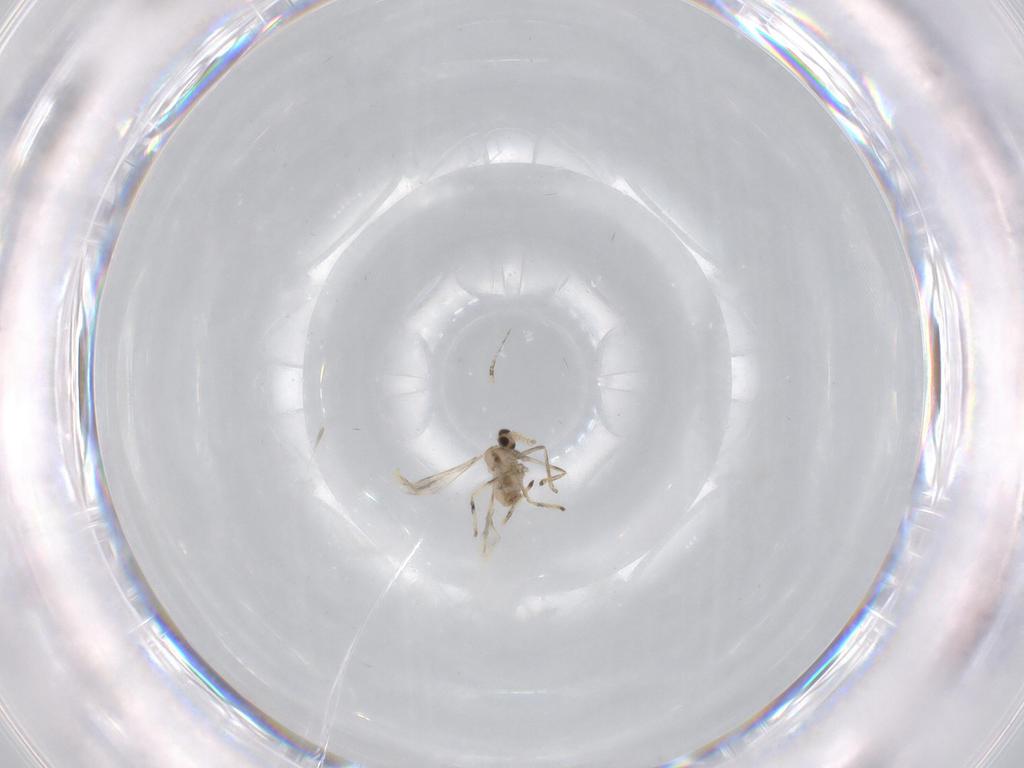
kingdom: Animalia
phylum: Arthropoda
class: Insecta
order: Diptera
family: Cecidomyiidae
